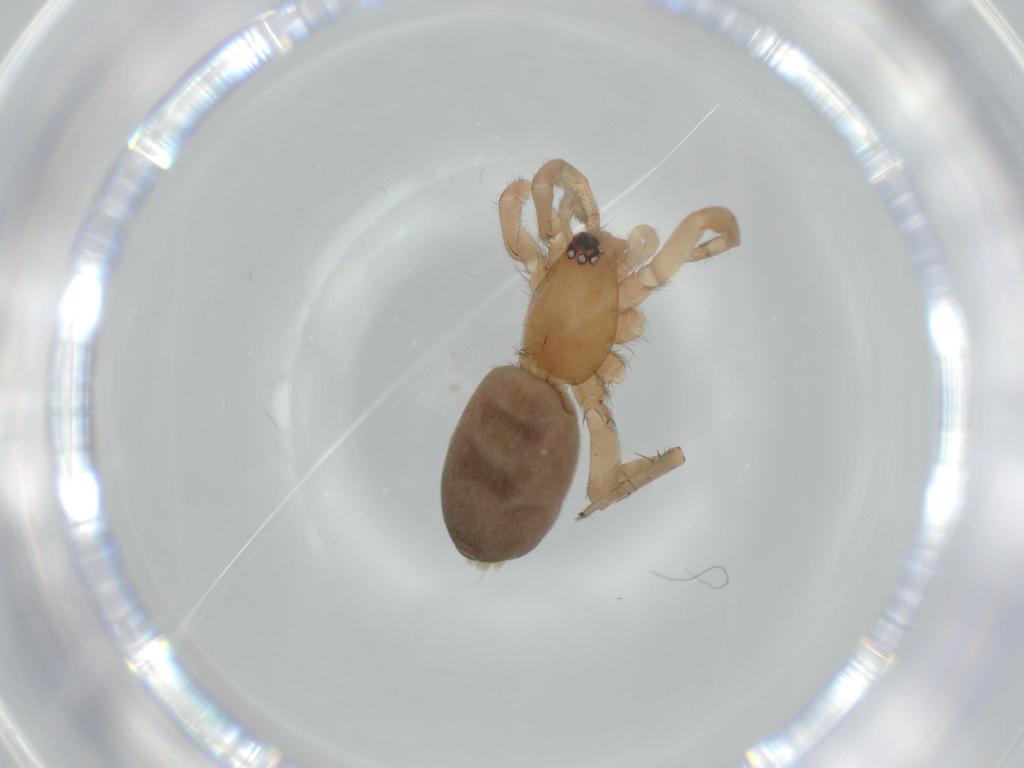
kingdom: Animalia
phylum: Arthropoda
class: Arachnida
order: Araneae
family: Gnaphosidae
